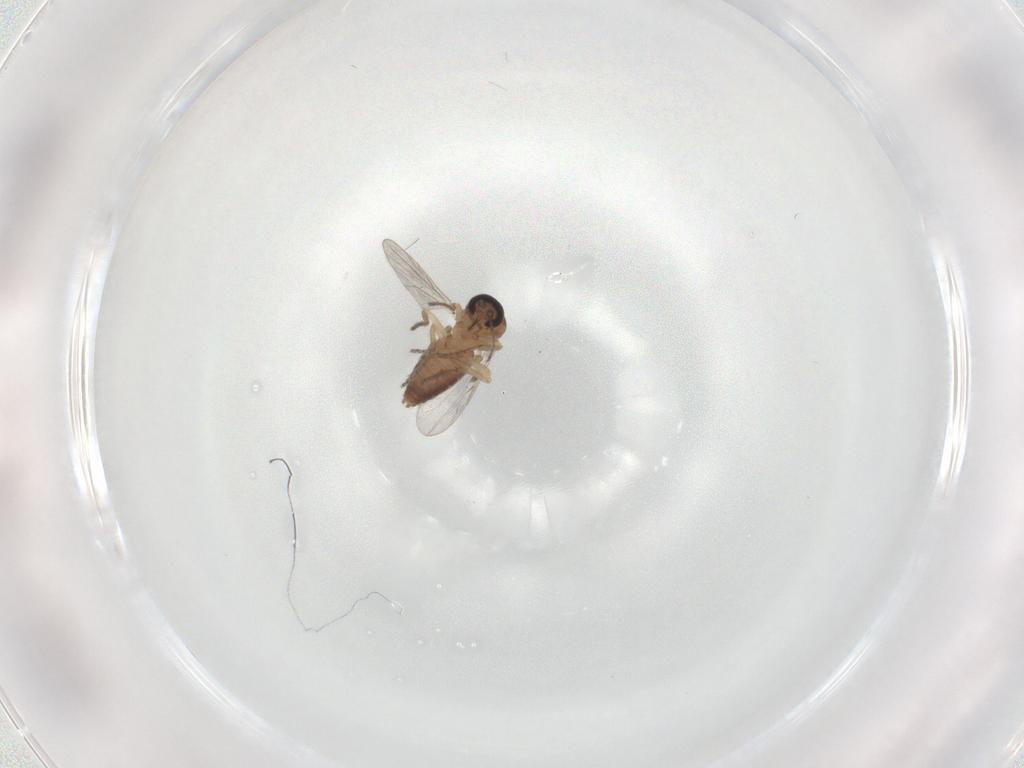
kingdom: Animalia
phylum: Arthropoda
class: Insecta
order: Diptera
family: Ceratopogonidae
